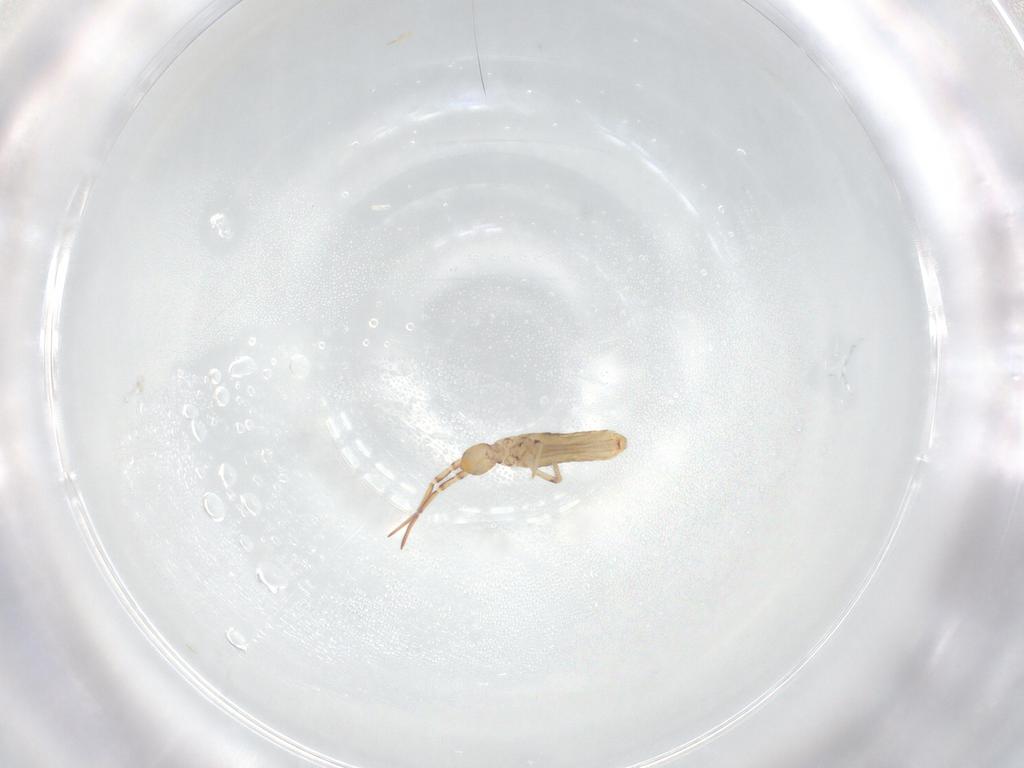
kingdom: Animalia
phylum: Arthropoda
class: Collembola
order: Entomobryomorpha
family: Entomobryidae
